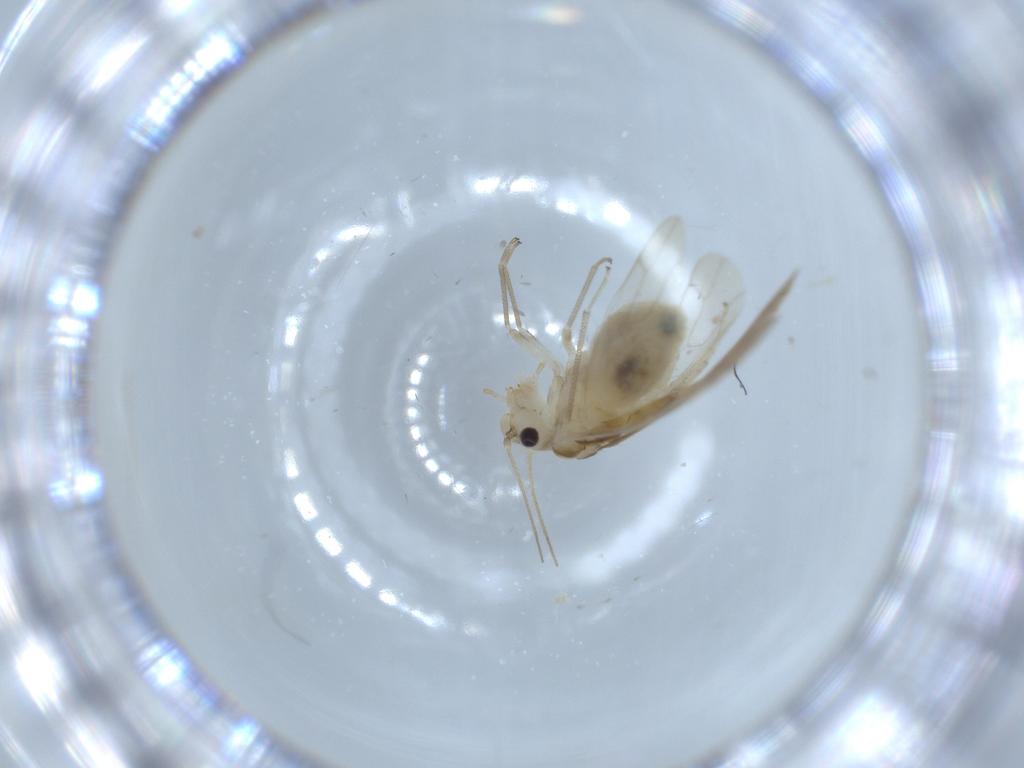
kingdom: Animalia
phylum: Arthropoda
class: Insecta
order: Psocodea
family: Caeciliusidae
